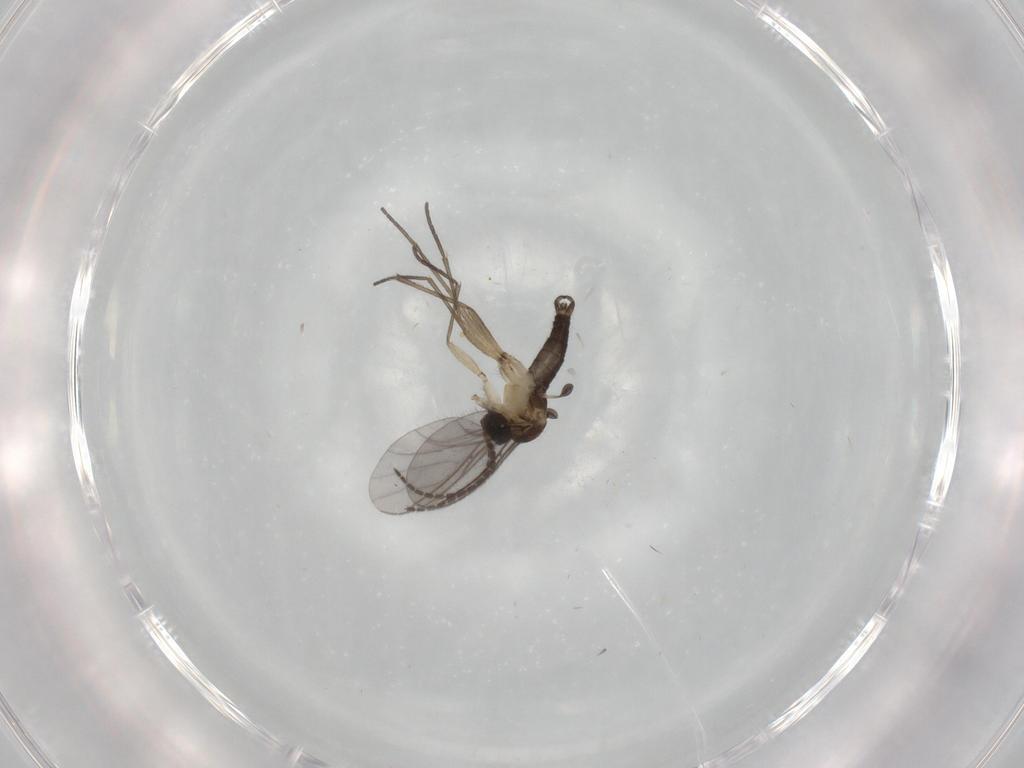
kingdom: Animalia
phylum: Arthropoda
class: Insecta
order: Diptera
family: Sciaridae
